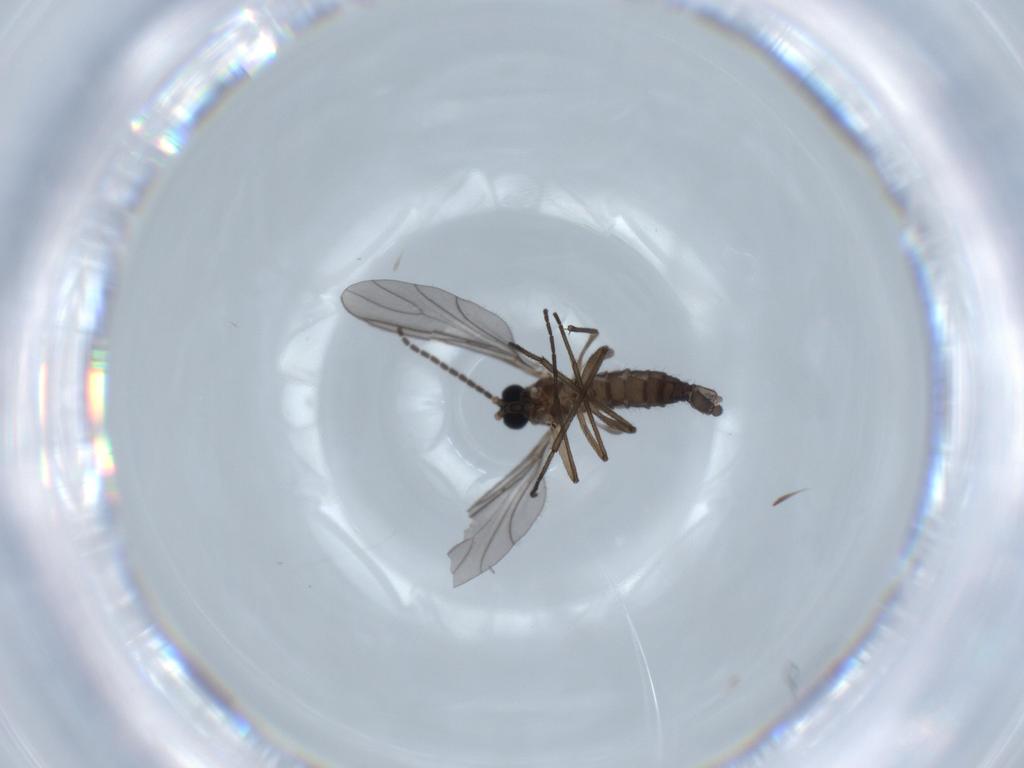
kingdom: Animalia
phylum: Arthropoda
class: Insecta
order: Diptera
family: Sciaridae
